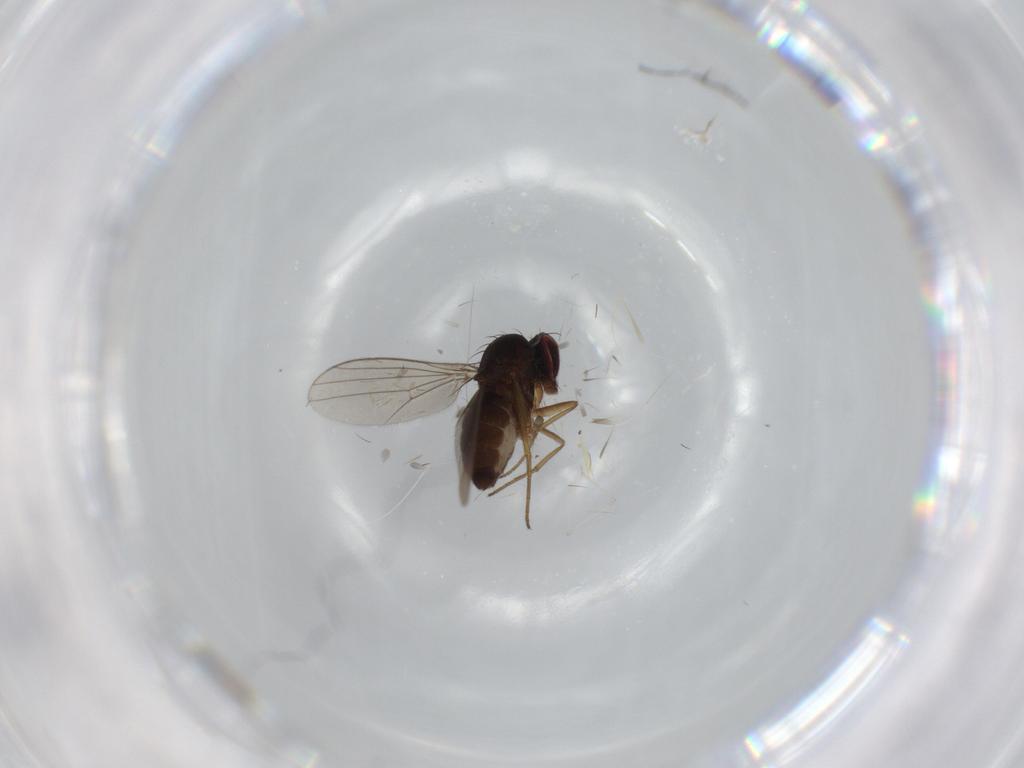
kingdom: Animalia
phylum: Arthropoda
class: Insecta
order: Diptera
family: Dolichopodidae
